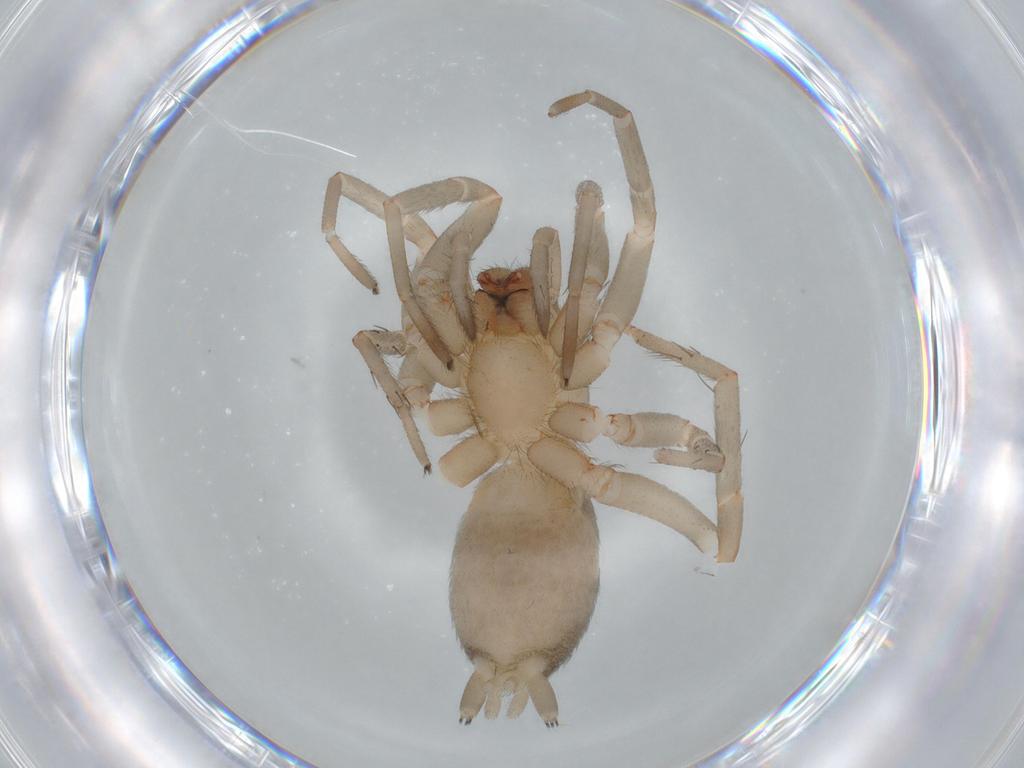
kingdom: Animalia
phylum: Arthropoda
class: Arachnida
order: Araneae
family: Gnaphosidae
